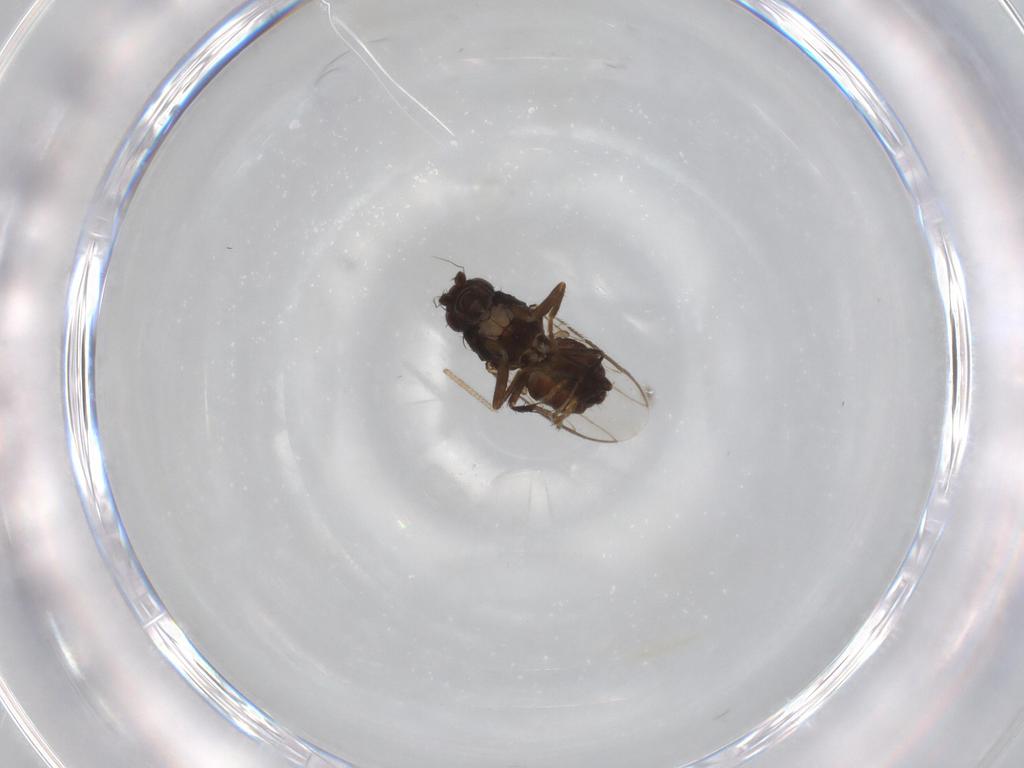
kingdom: Animalia
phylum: Arthropoda
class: Insecta
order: Diptera
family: Sphaeroceridae
